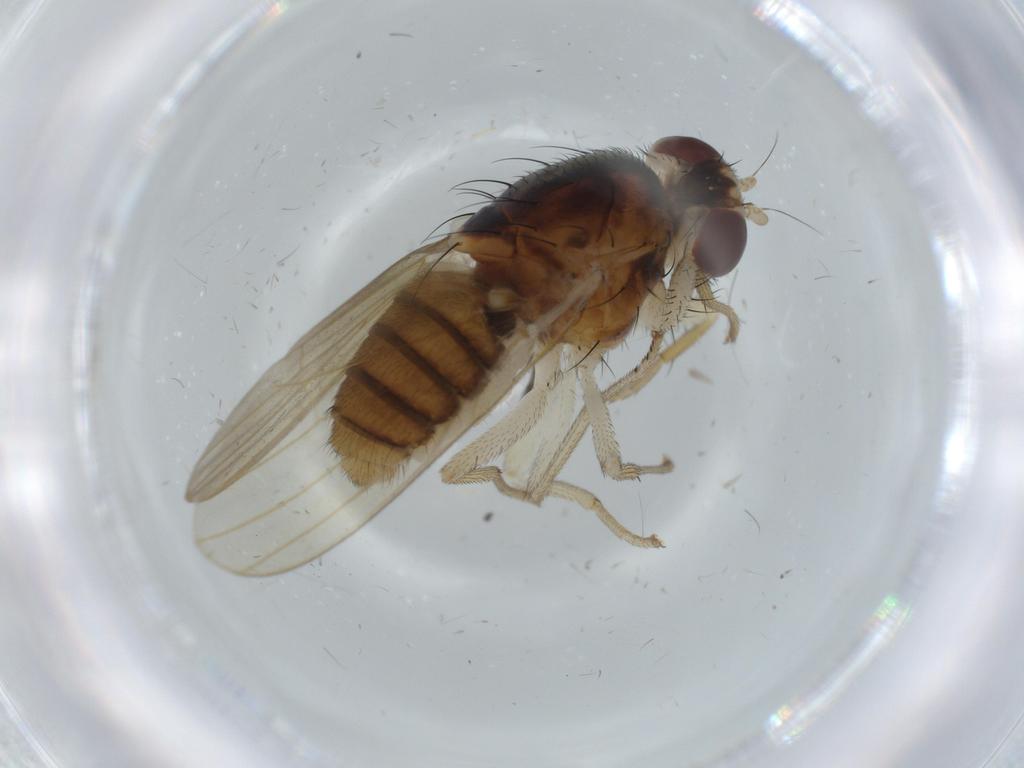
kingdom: Animalia
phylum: Arthropoda
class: Insecta
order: Diptera
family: Lauxaniidae
